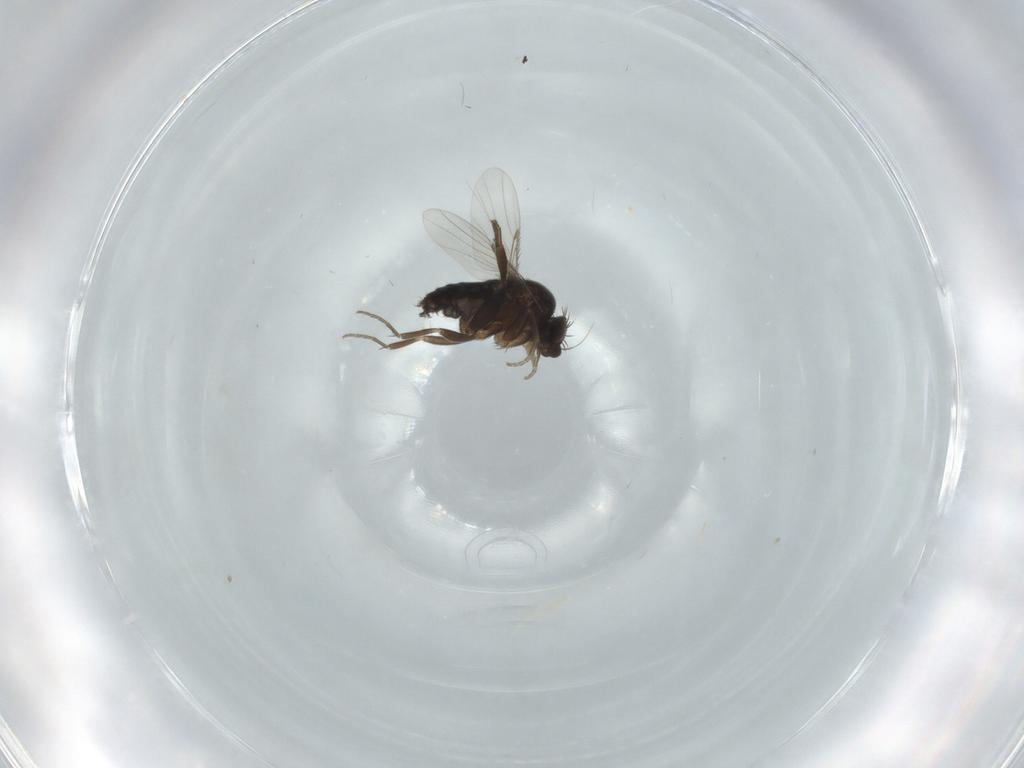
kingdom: Animalia
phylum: Arthropoda
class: Insecta
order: Diptera
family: Phoridae
